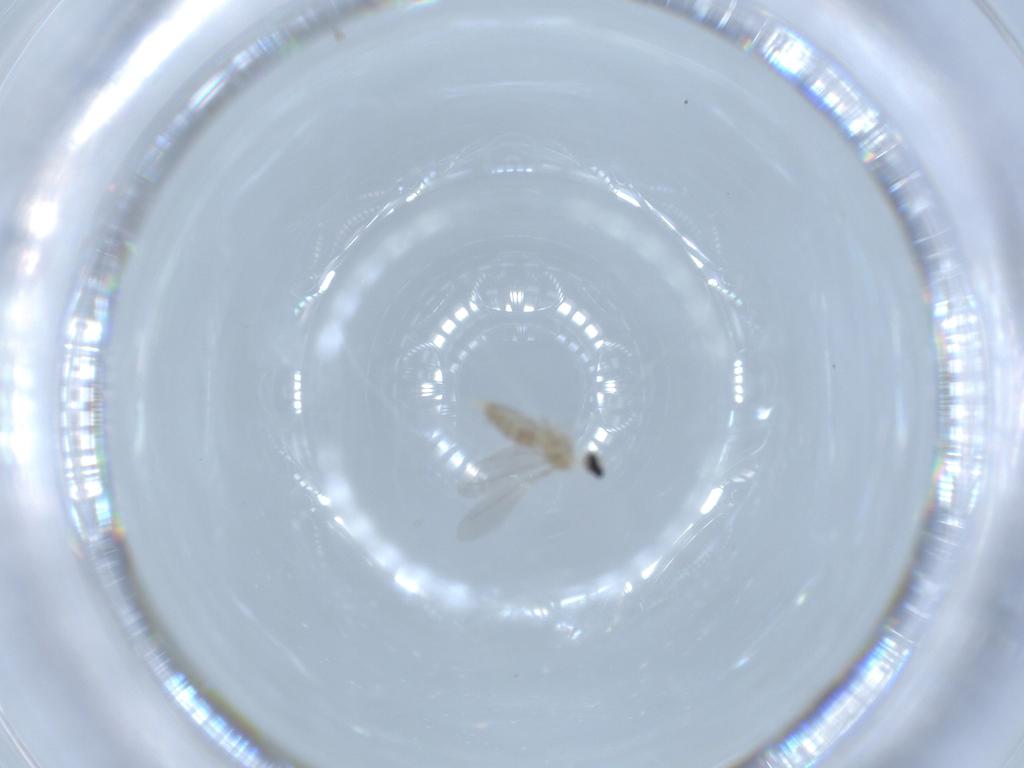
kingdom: Animalia
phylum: Arthropoda
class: Insecta
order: Diptera
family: Cecidomyiidae
